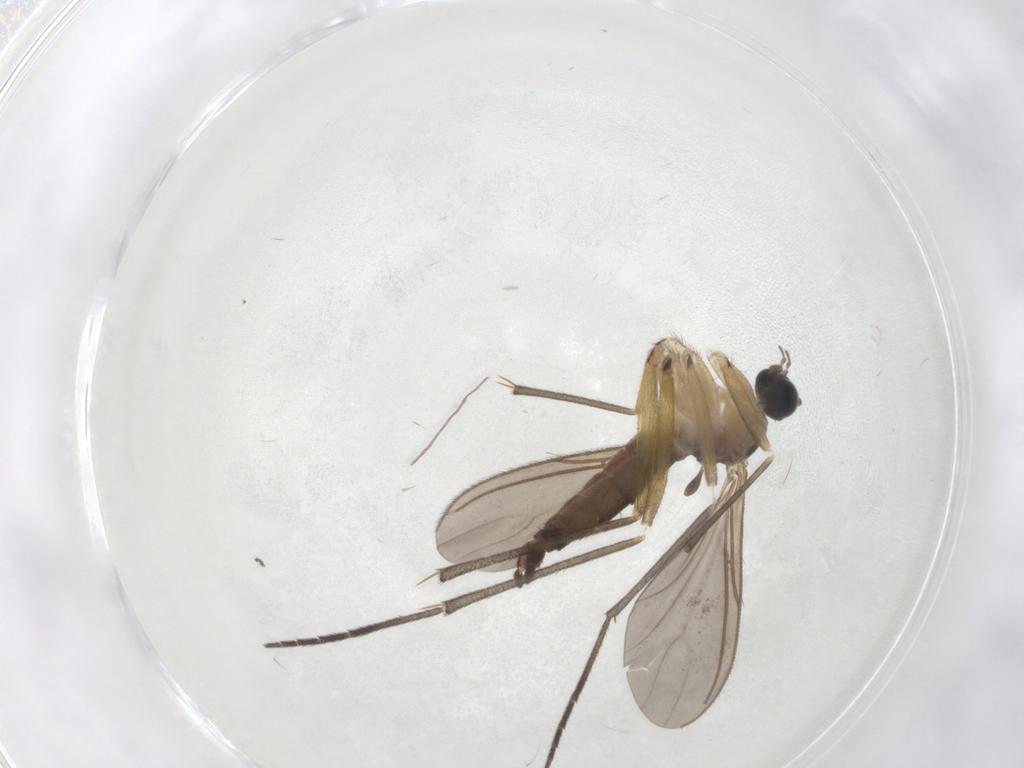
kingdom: Animalia
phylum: Arthropoda
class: Insecta
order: Diptera
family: Sciaridae
